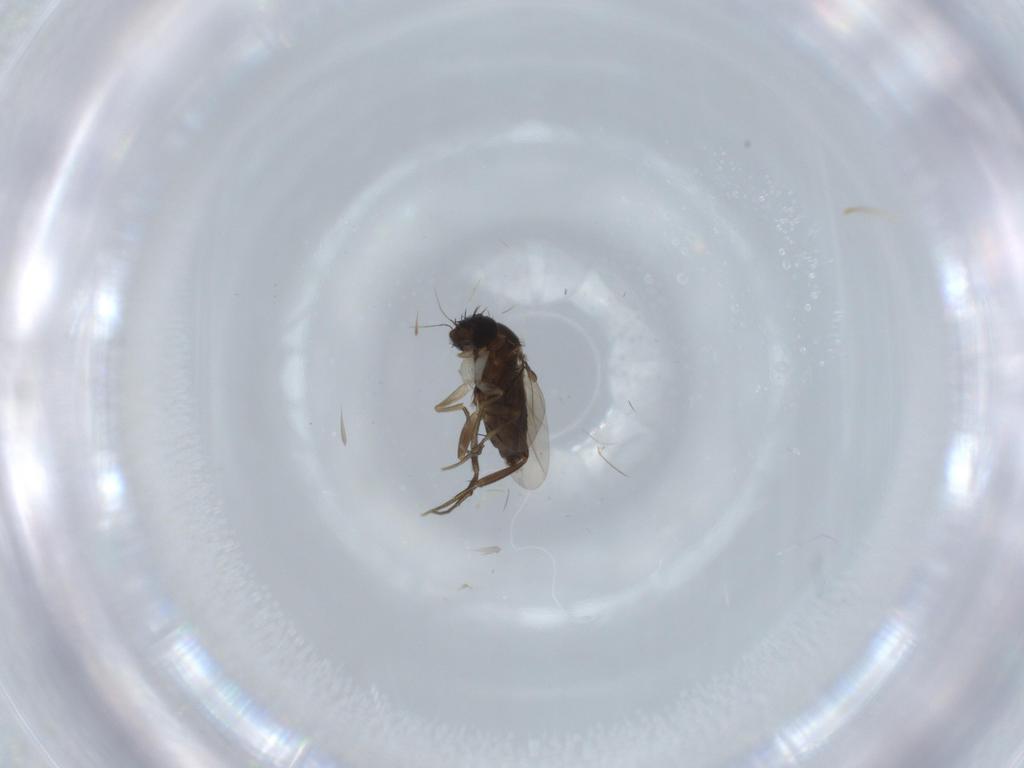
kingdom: Animalia
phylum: Arthropoda
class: Insecta
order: Diptera
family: Phoridae
